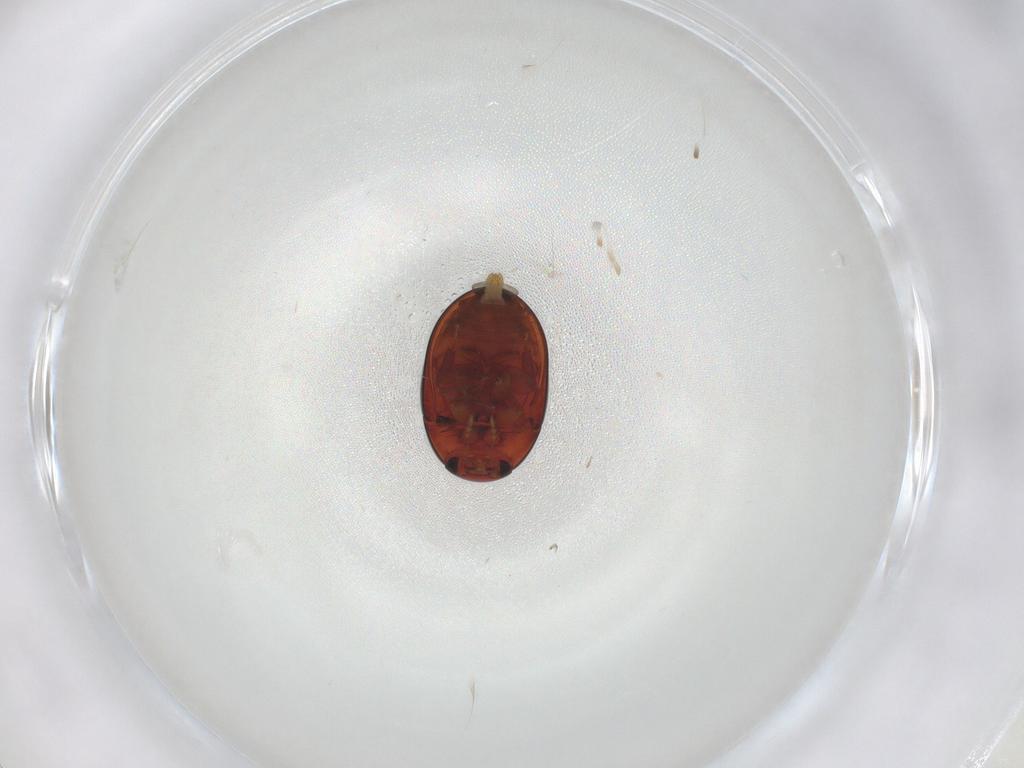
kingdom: Animalia
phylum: Arthropoda
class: Insecta
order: Coleoptera
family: Phalacridae
